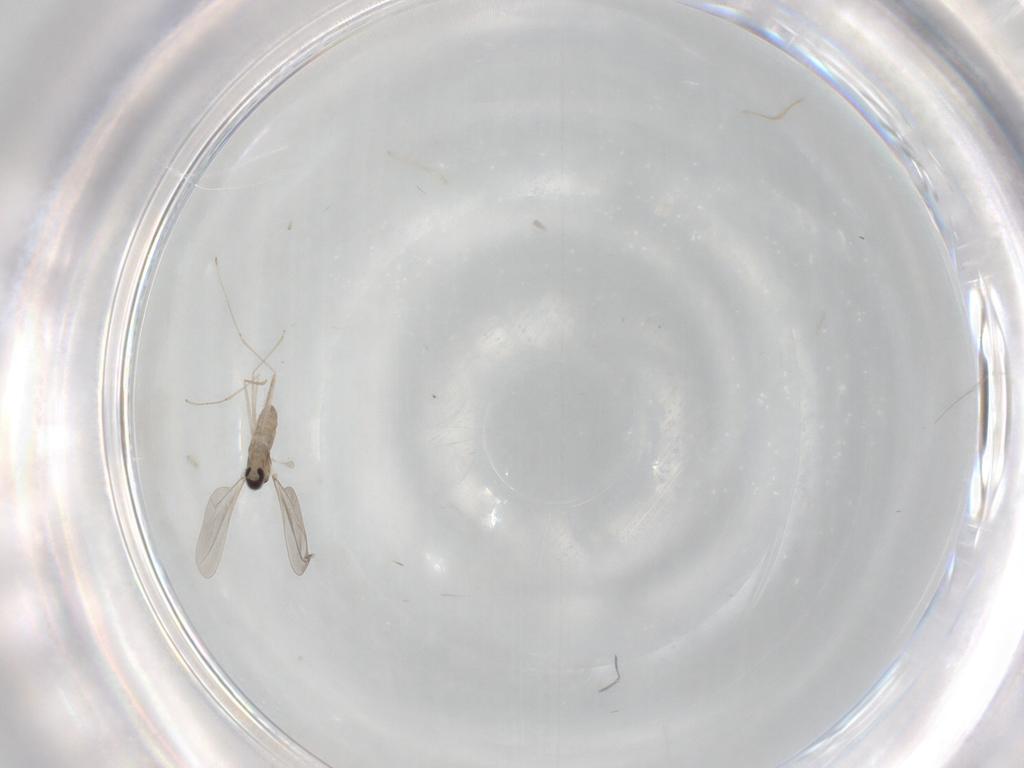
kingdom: Animalia
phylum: Arthropoda
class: Insecta
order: Diptera
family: Cecidomyiidae
